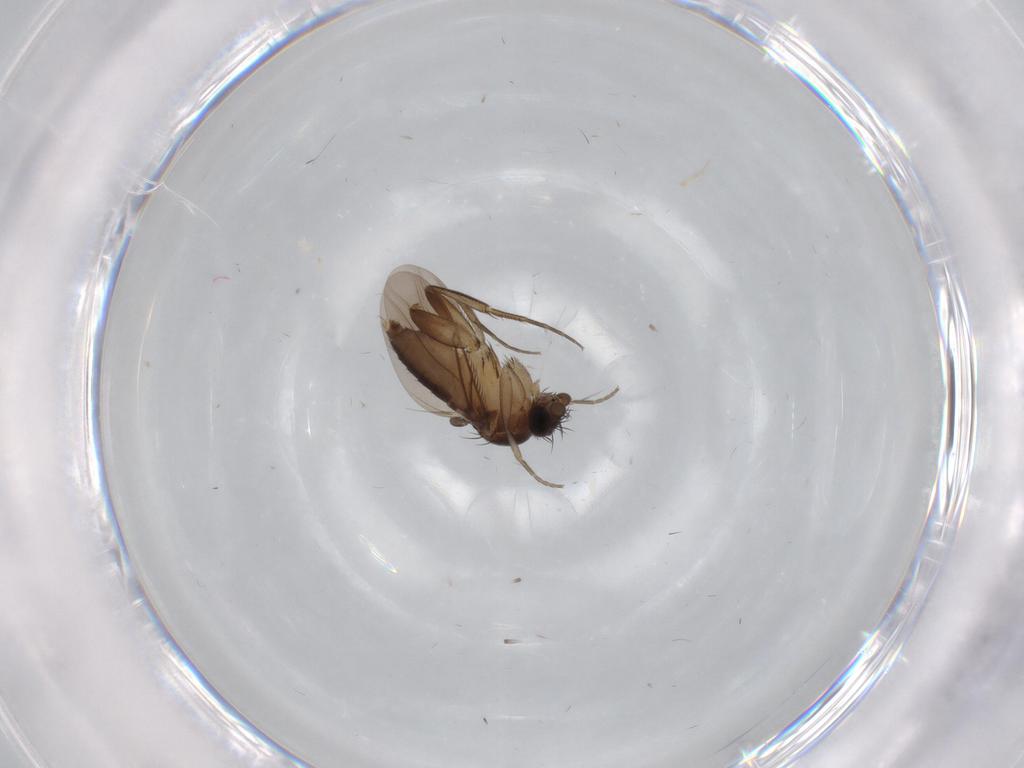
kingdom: Animalia
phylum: Arthropoda
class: Insecta
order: Diptera
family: Phoridae
